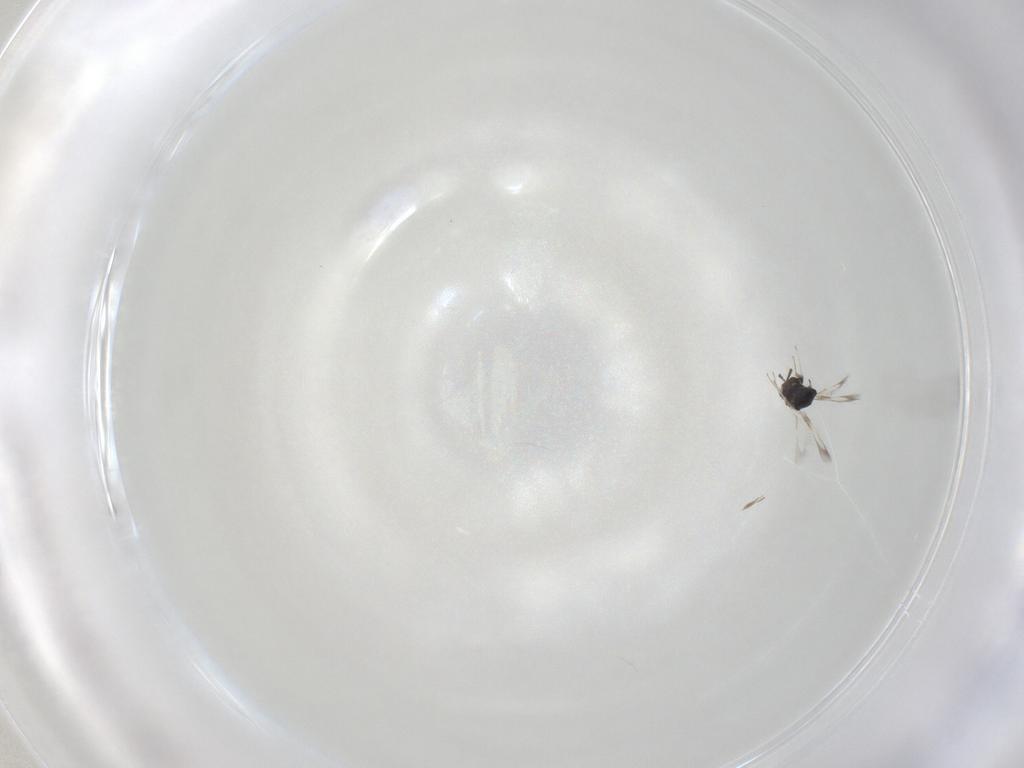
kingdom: Animalia
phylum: Arthropoda
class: Insecta
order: Hymenoptera
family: Signiphoridae
